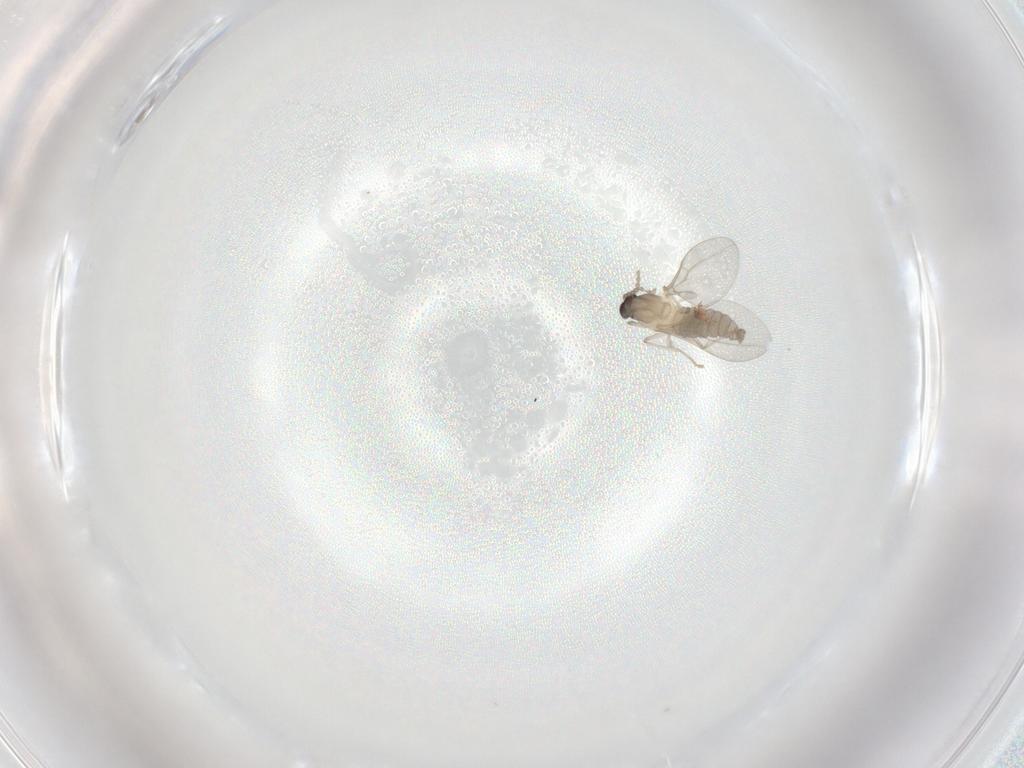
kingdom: Animalia
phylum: Arthropoda
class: Insecta
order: Diptera
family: Cecidomyiidae
